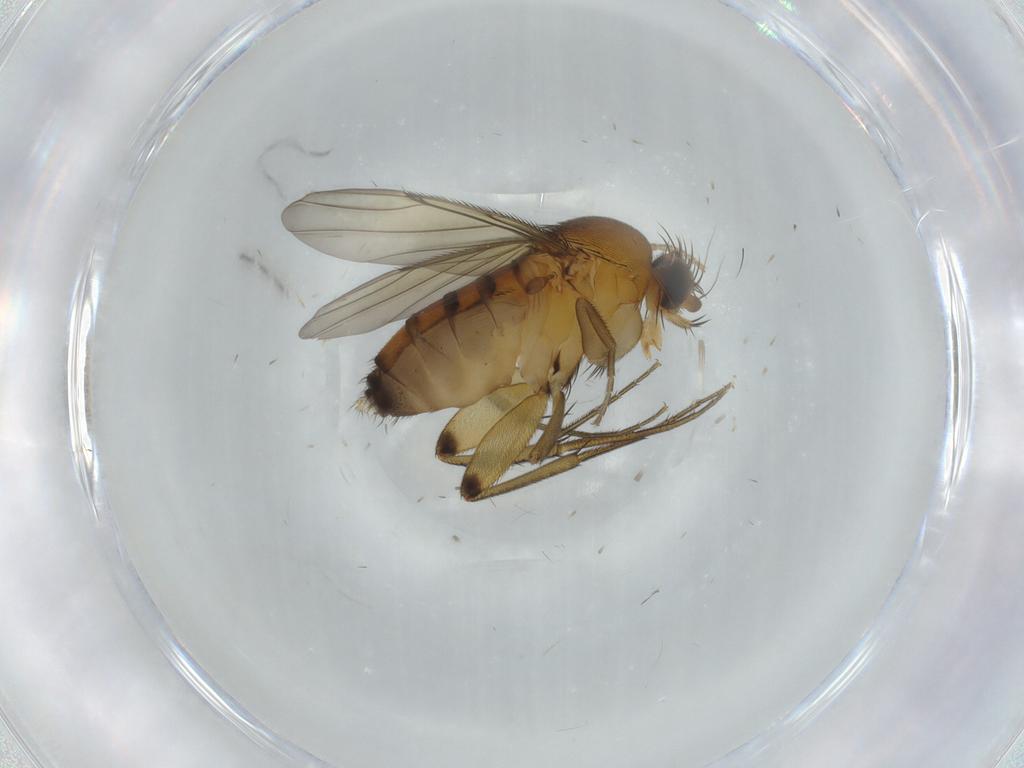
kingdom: Animalia
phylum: Arthropoda
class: Insecta
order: Diptera
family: Phoridae
